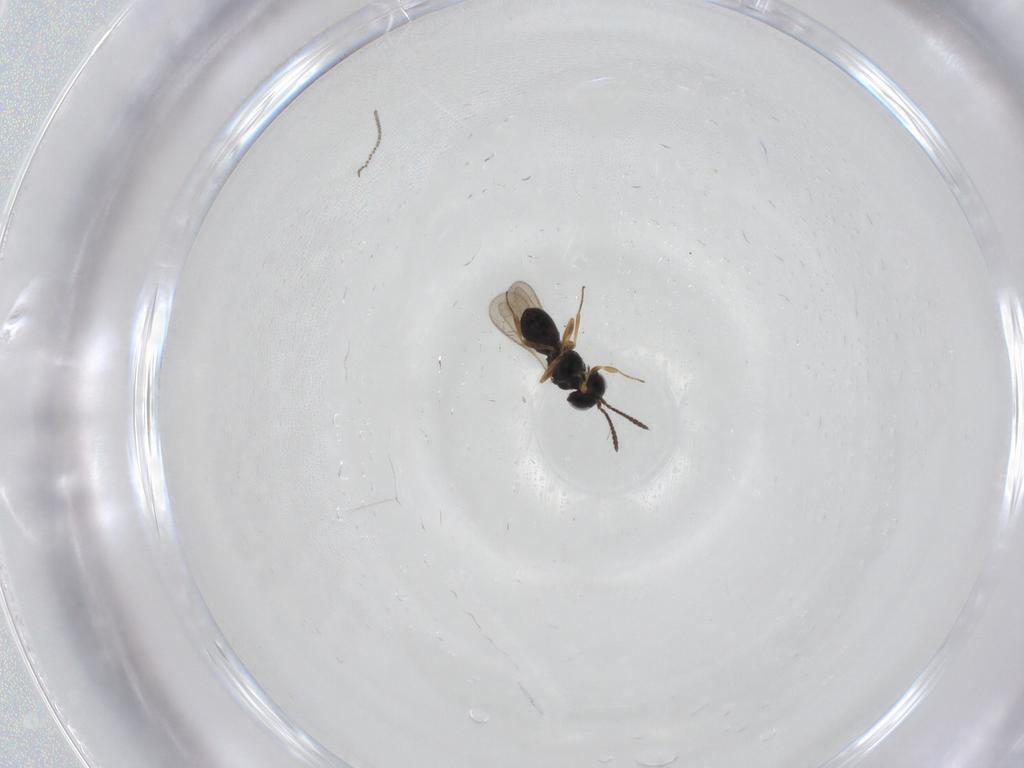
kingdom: Animalia
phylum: Arthropoda
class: Insecta
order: Hymenoptera
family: Scelionidae
